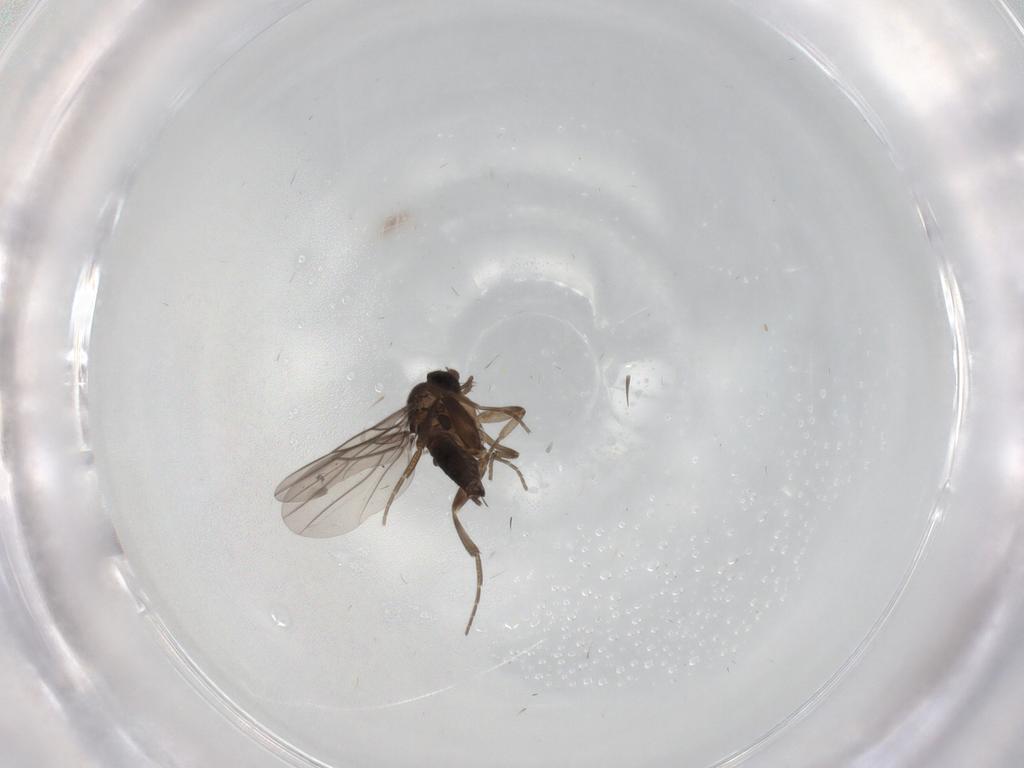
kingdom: Animalia
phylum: Arthropoda
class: Insecta
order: Diptera
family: Phoridae
